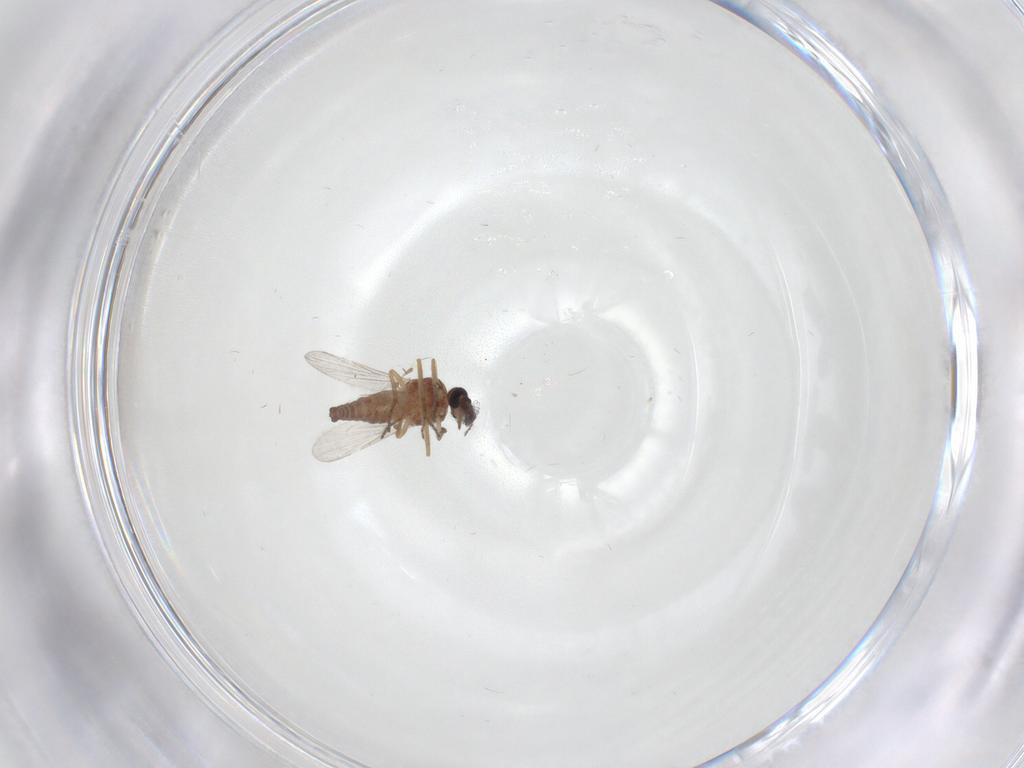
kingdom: Animalia
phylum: Arthropoda
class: Insecta
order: Diptera
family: Ceratopogonidae
